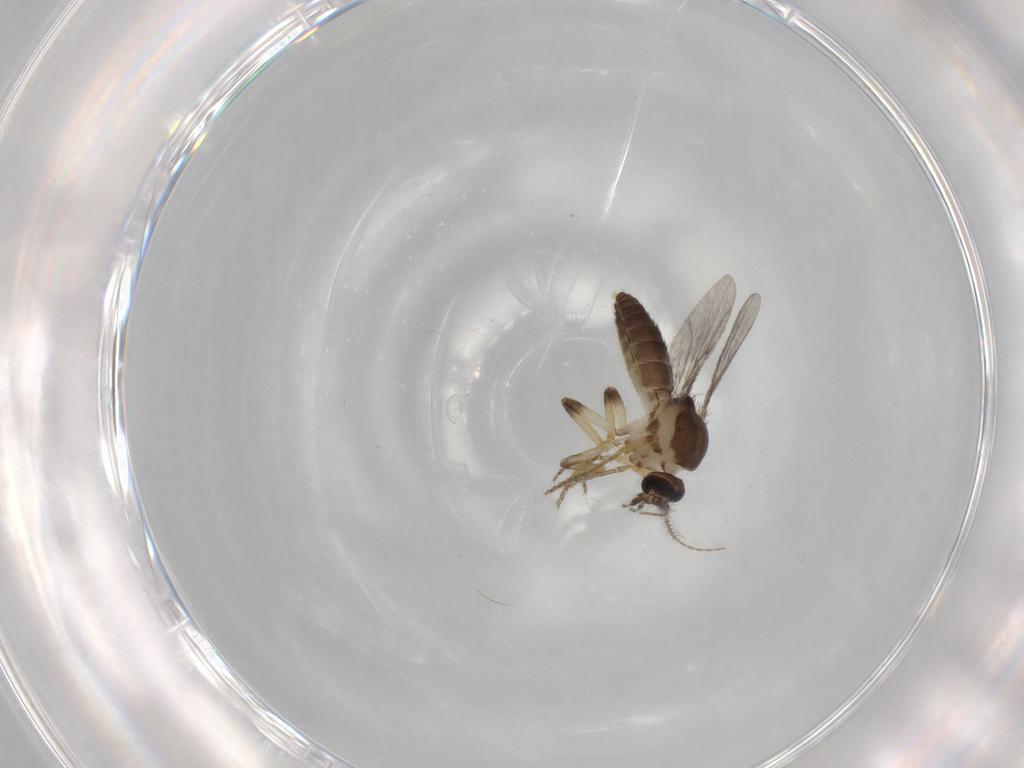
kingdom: Animalia
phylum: Arthropoda
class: Insecta
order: Diptera
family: Ceratopogonidae
